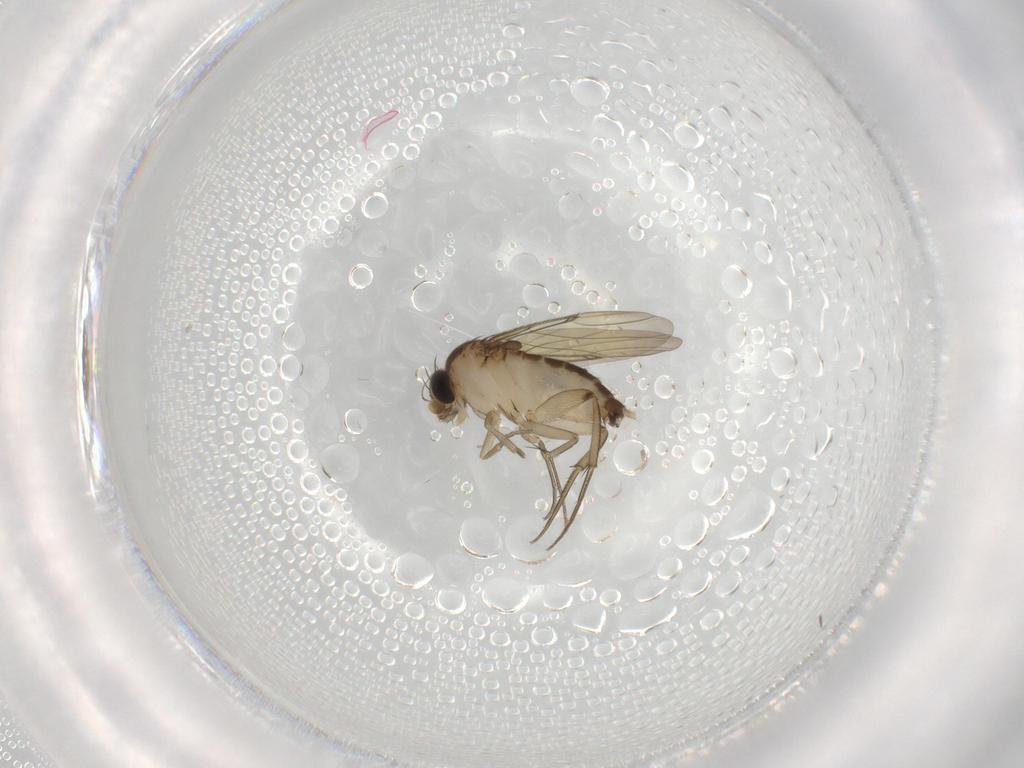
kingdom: Animalia
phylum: Arthropoda
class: Insecta
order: Diptera
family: Phoridae
